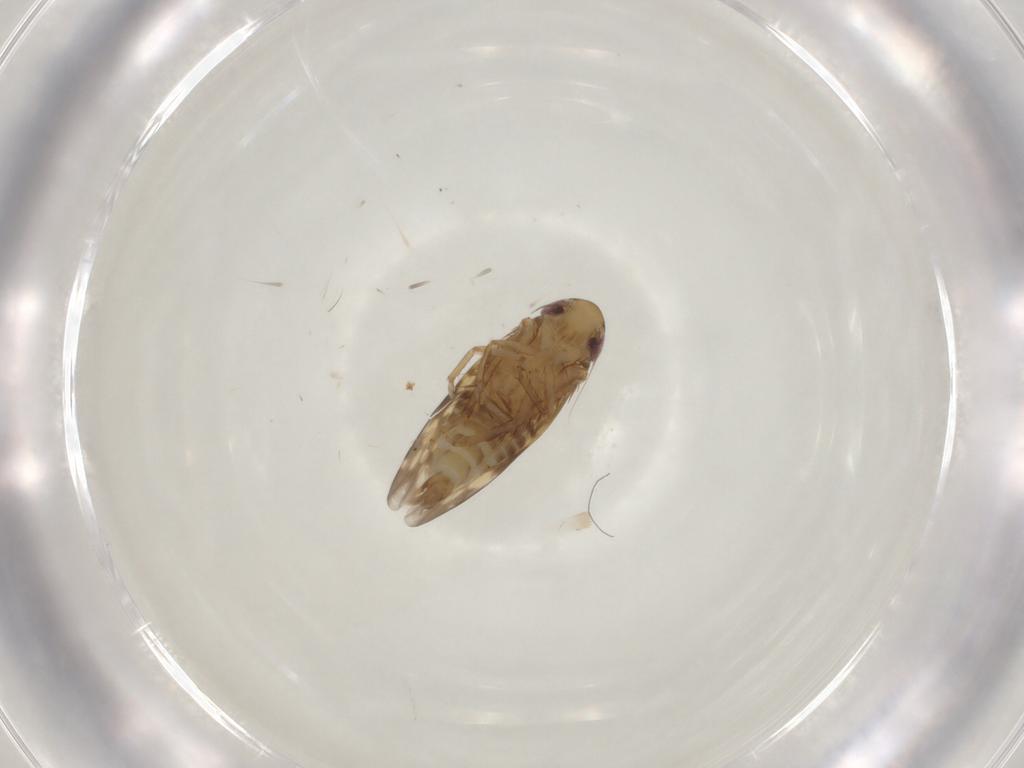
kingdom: Animalia
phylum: Arthropoda
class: Insecta
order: Hemiptera
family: Cicadellidae
